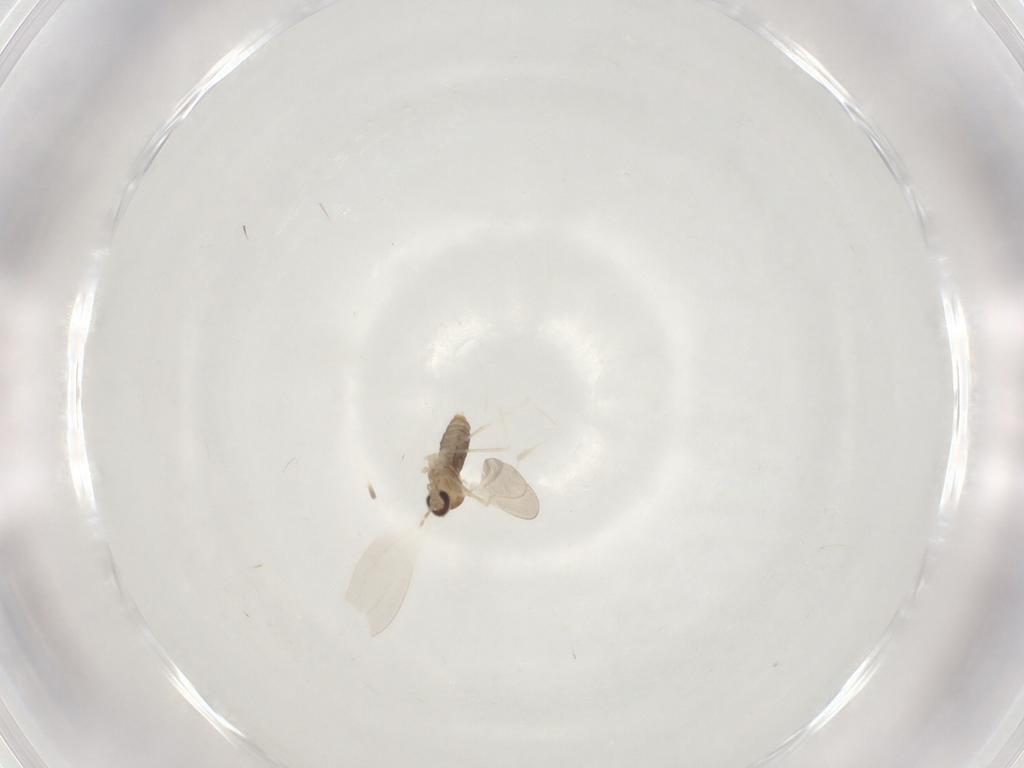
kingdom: Animalia
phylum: Arthropoda
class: Insecta
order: Diptera
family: Cecidomyiidae
